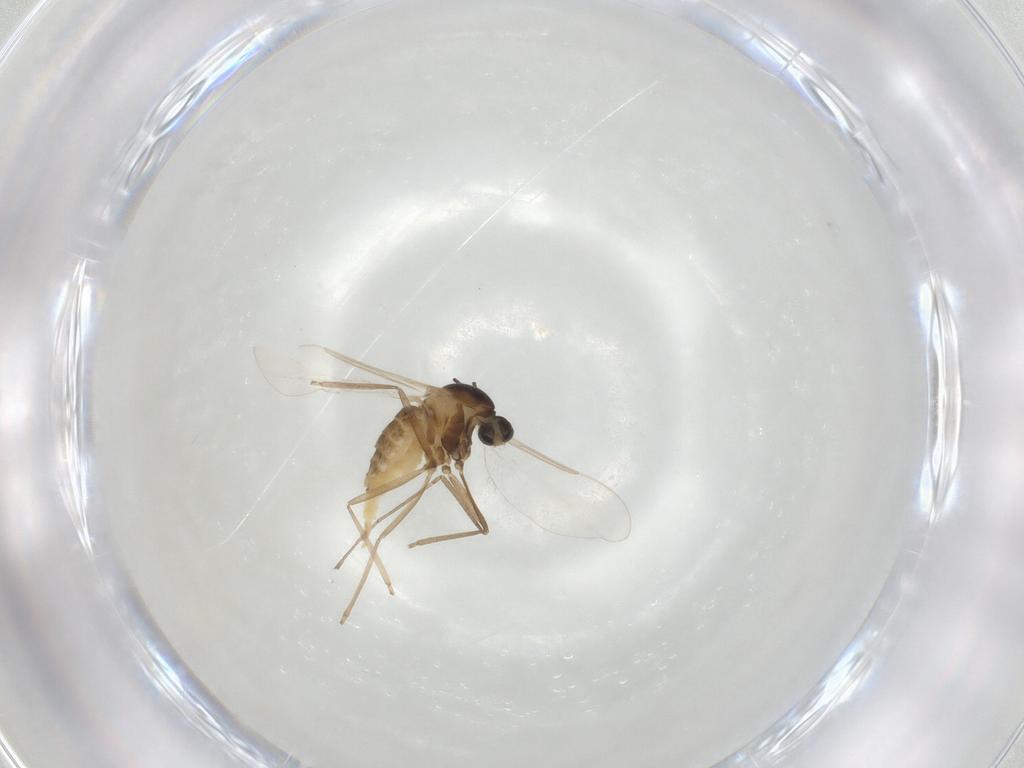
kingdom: Animalia
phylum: Arthropoda
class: Insecta
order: Diptera
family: Cecidomyiidae
